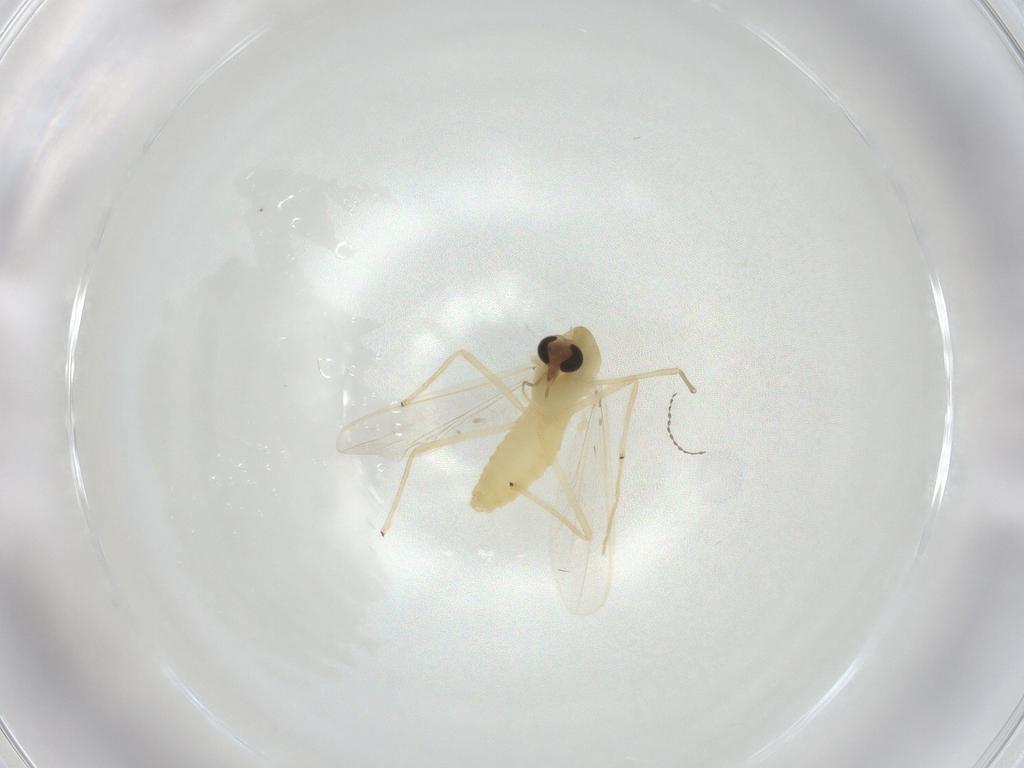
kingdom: Animalia
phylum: Arthropoda
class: Insecta
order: Diptera
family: Chironomidae
